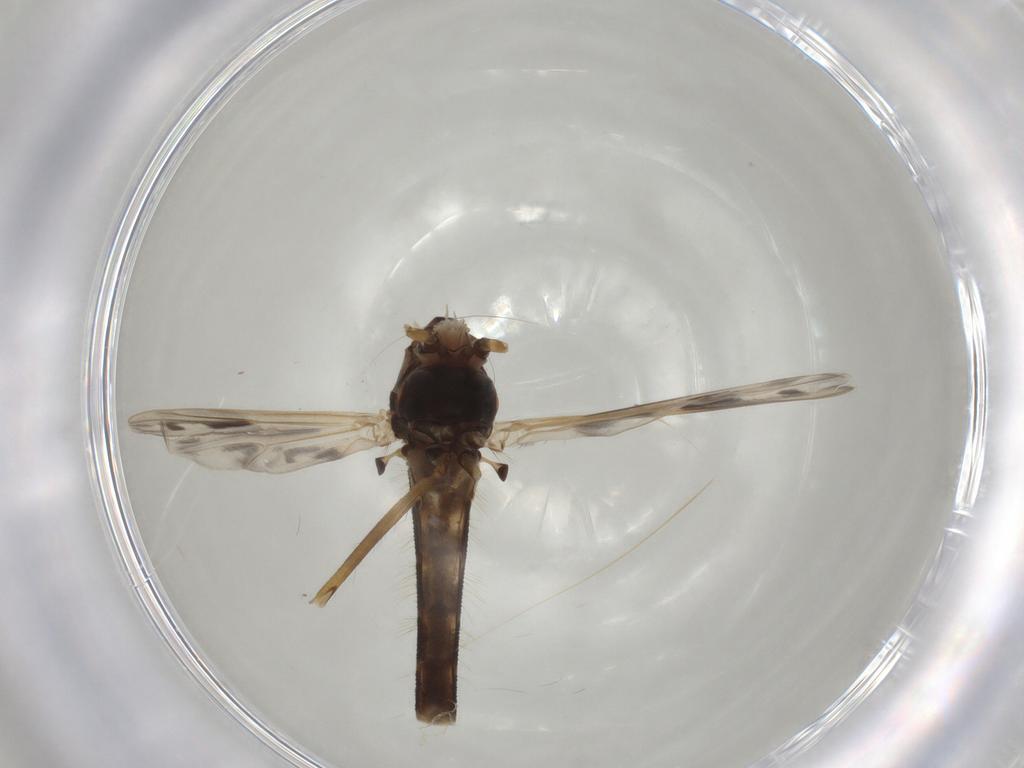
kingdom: Animalia
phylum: Arthropoda
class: Insecta
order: Diptera
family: Chironomidae
